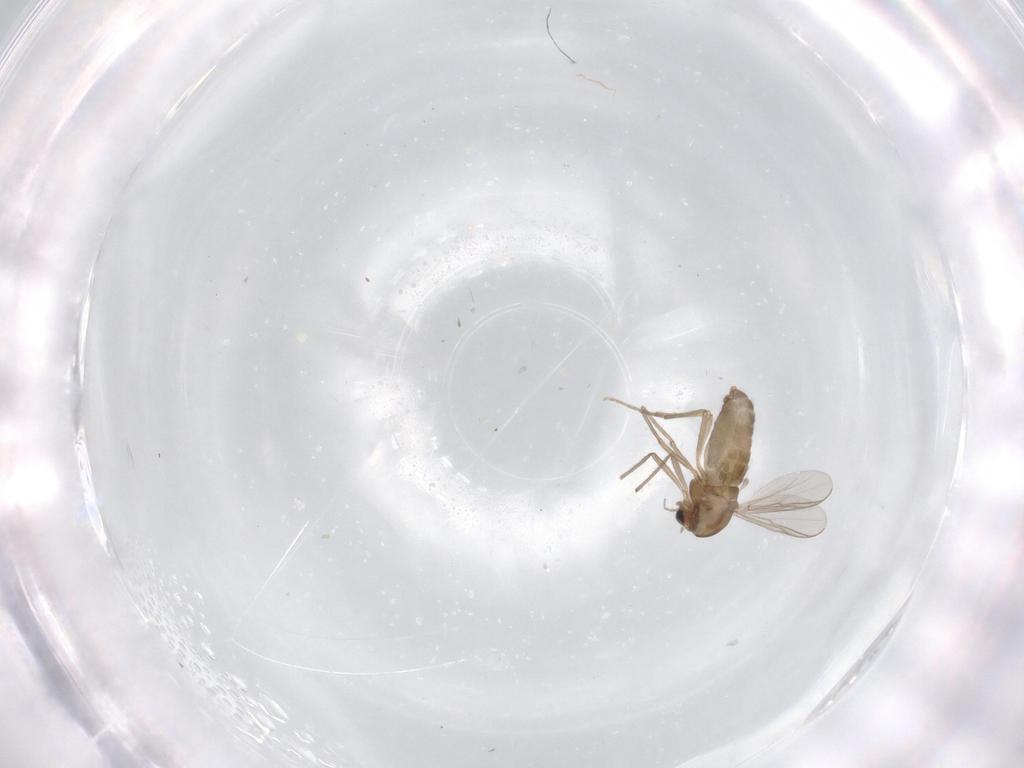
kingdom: Animalia
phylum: Arthropoda
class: Insecta
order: Diptera
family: Chironomidae
